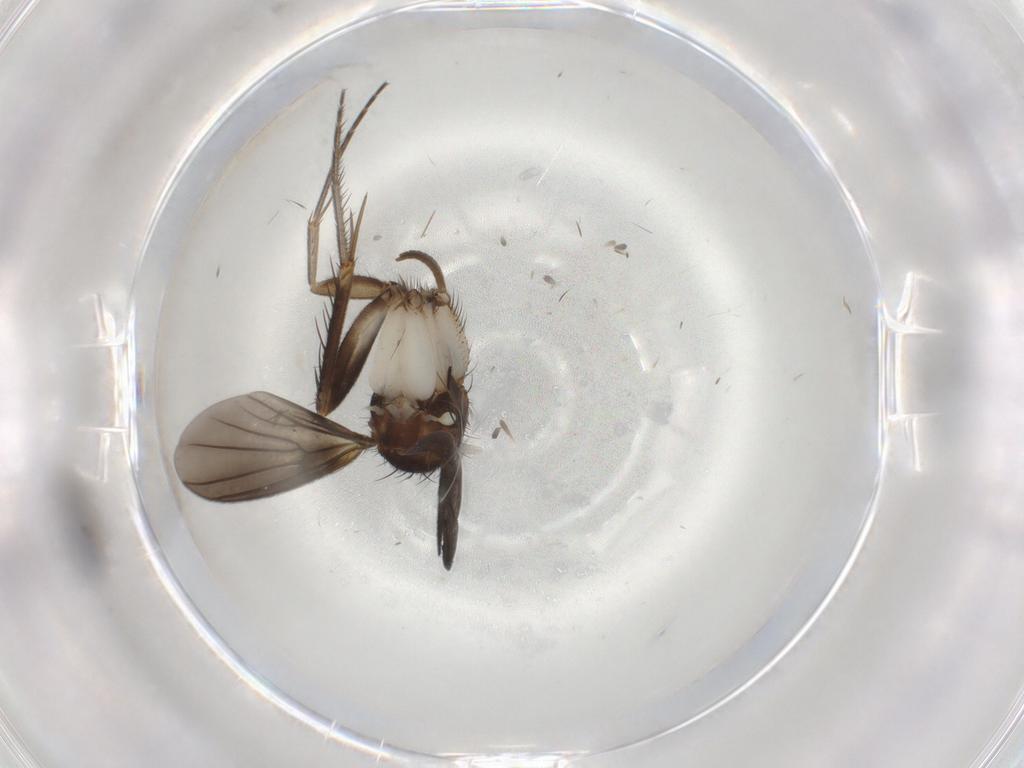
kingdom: Animalia
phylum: Arthropoda
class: Insecta
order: Diptera
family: Mycetophilidae
